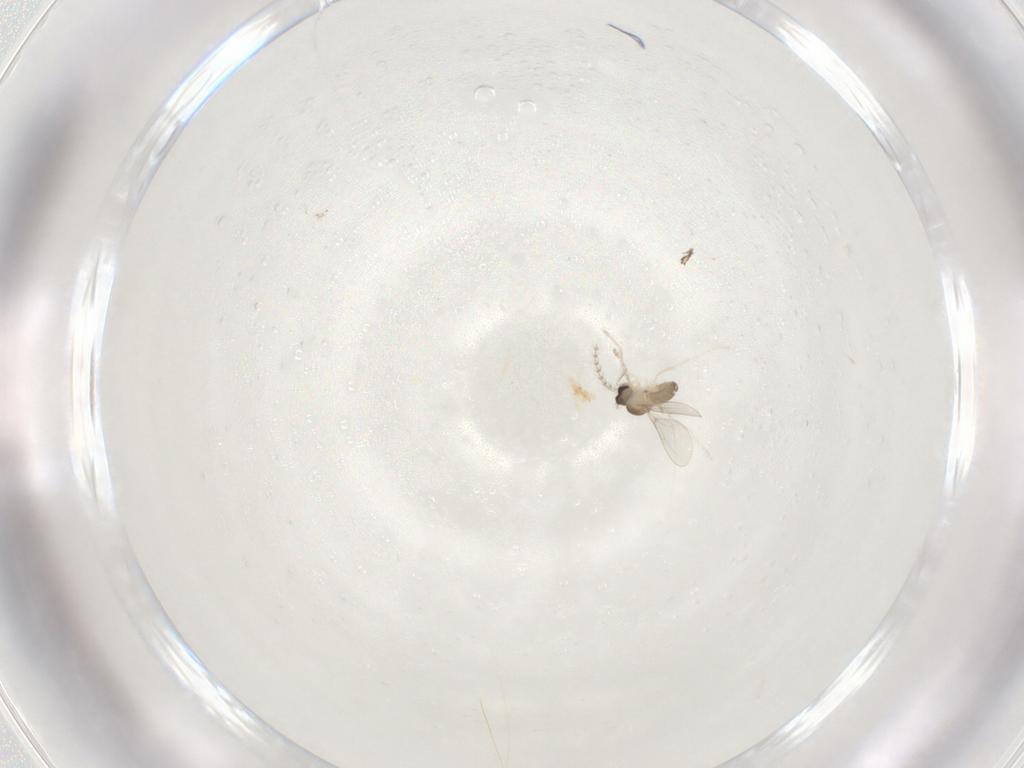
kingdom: Animalia
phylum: Arthropoda
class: Insecta
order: Diptera
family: Cecidomyiidae
